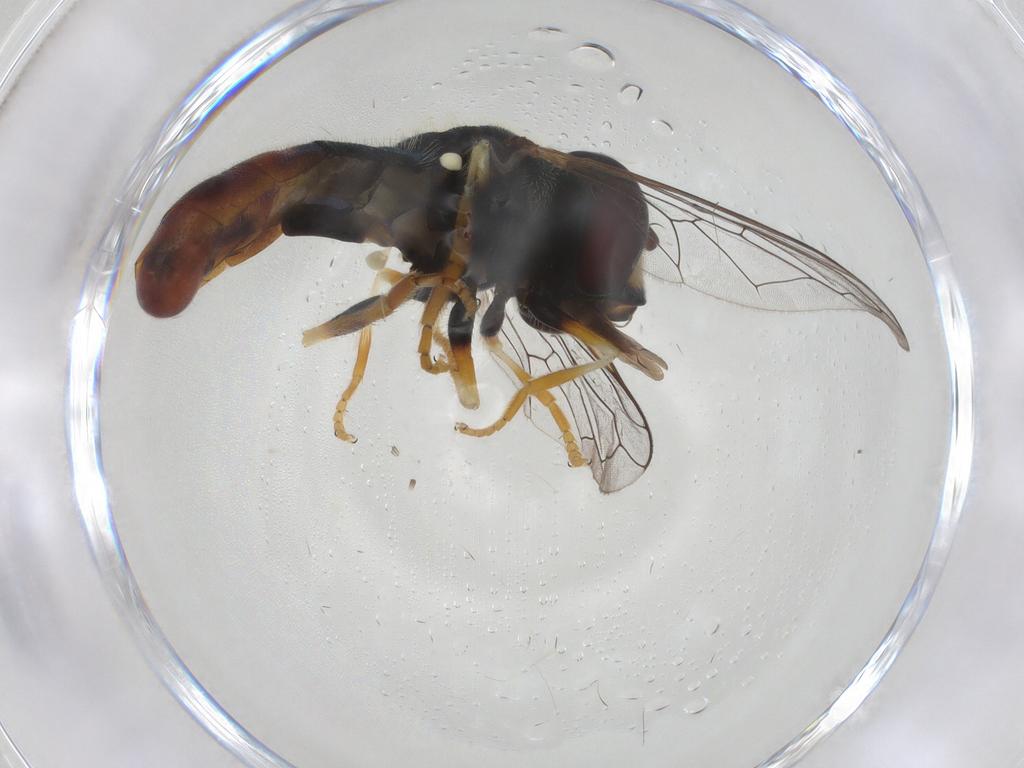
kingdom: Animalia
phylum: Arthropoda
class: Insecta
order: Diptera
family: Syrphidae
